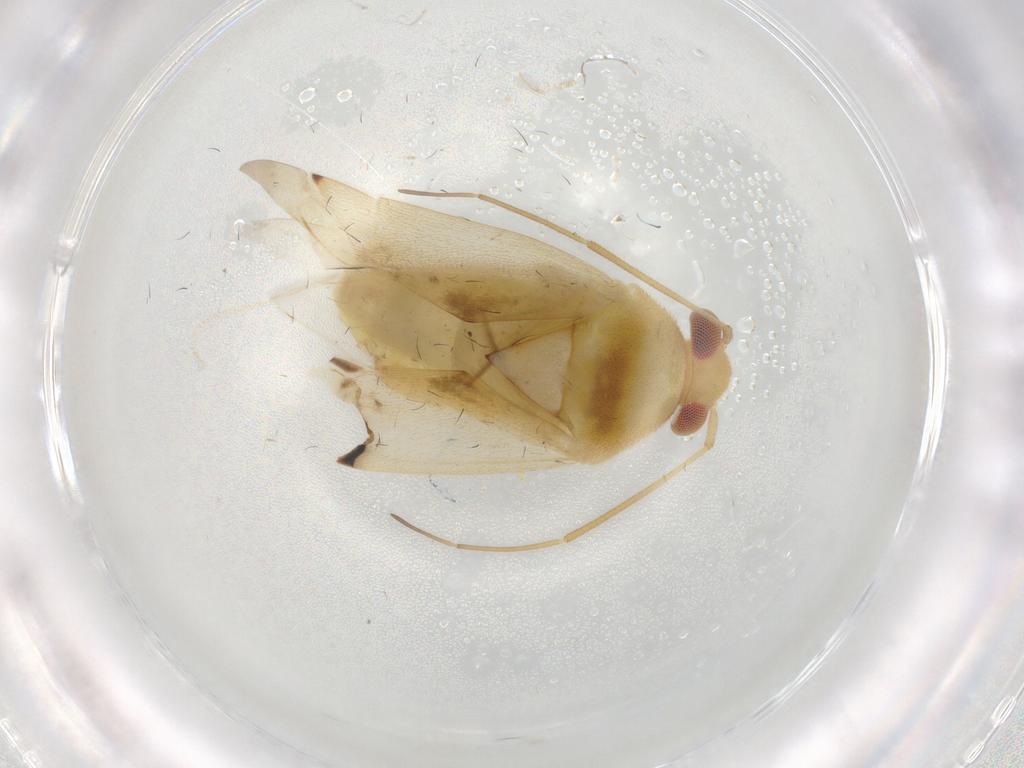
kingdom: Animalia
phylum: Arthropoda
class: Insecta
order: Hemiptera
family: Miridae
